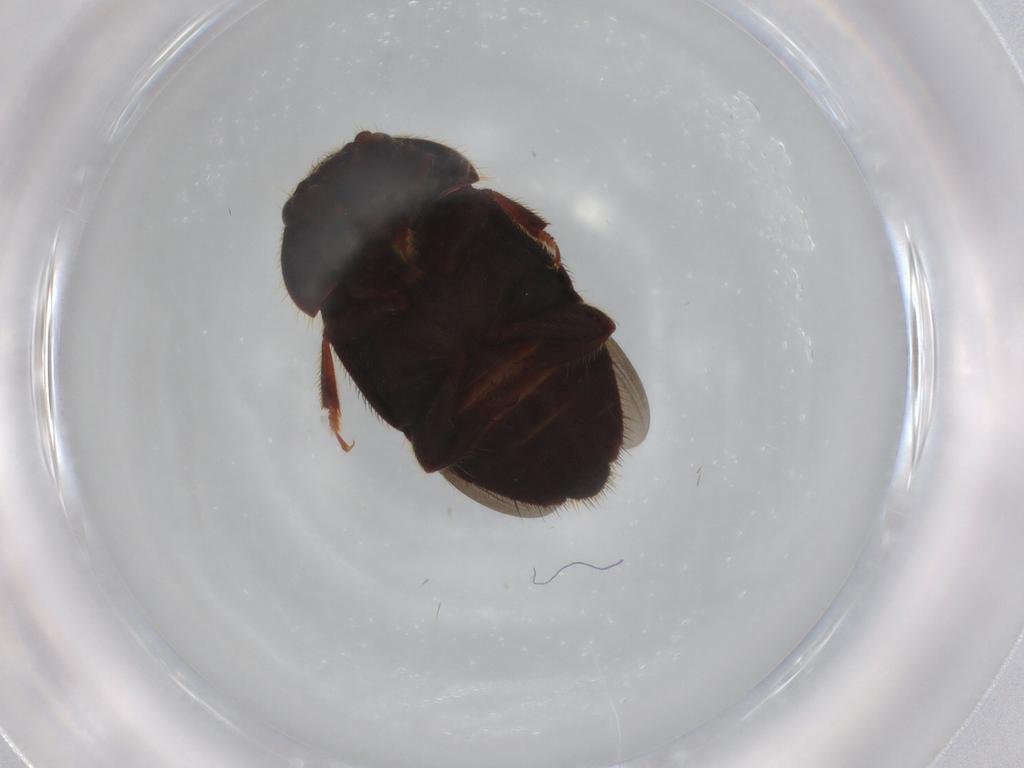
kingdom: Animalia
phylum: Arthropoda
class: Insecta
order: Coleoptera
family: Nitidulidae
